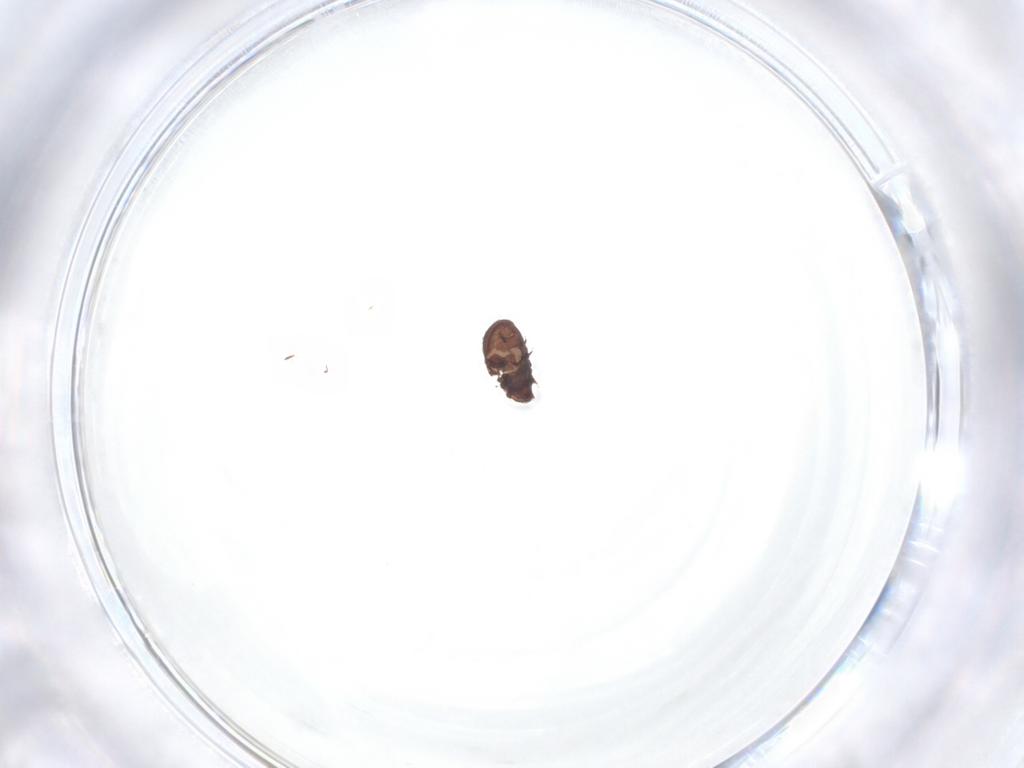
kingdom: Animalia
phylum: Arthropoda
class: Arachnida
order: Sarcoptiformes
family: Carabodidae
